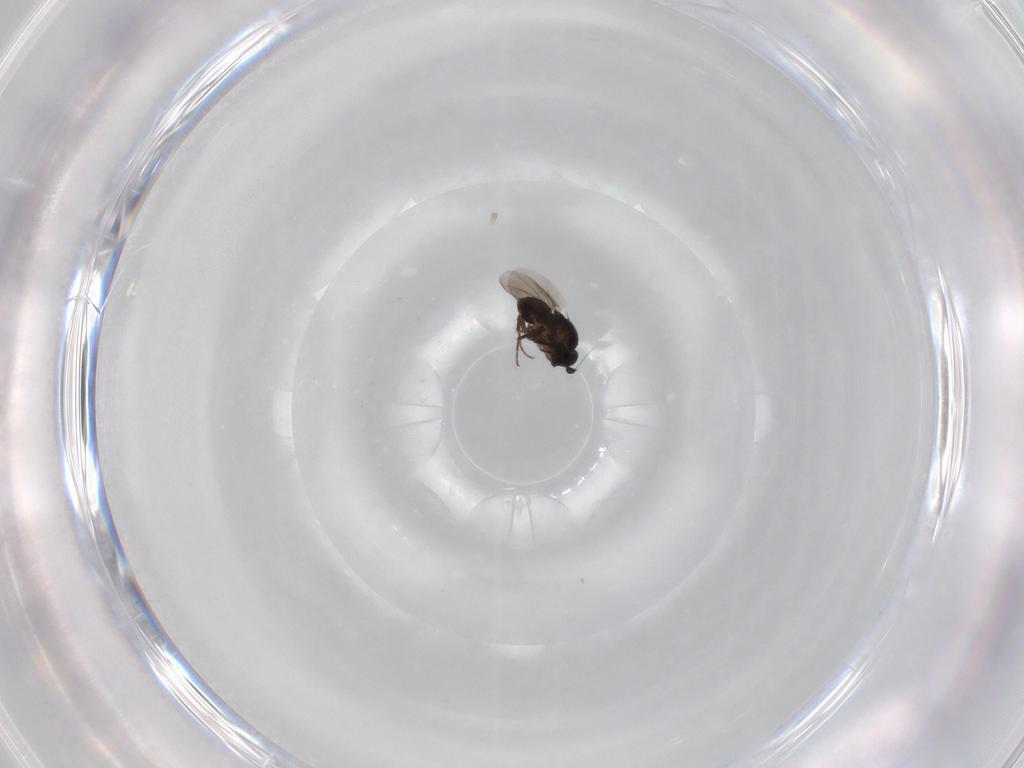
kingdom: Animalia
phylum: Arthropoda
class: Insecta
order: Diptera
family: Sphaeroceridae
